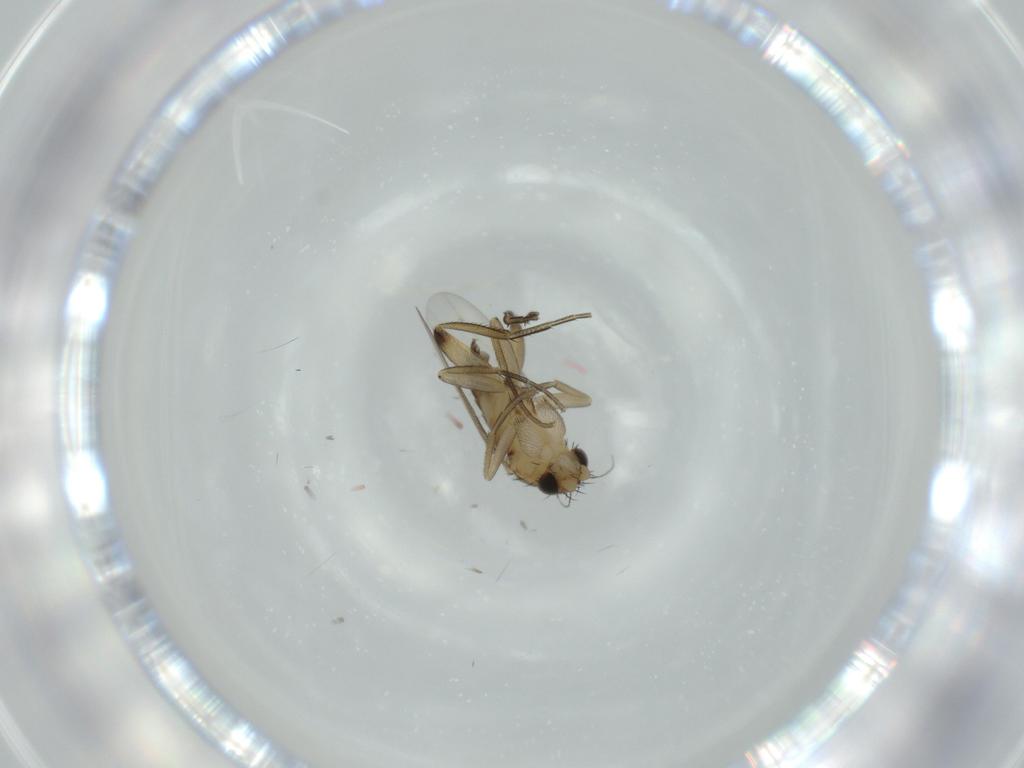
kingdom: Animalia
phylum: Arthropoda
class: Insecta
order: Diptera
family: Phoridae
